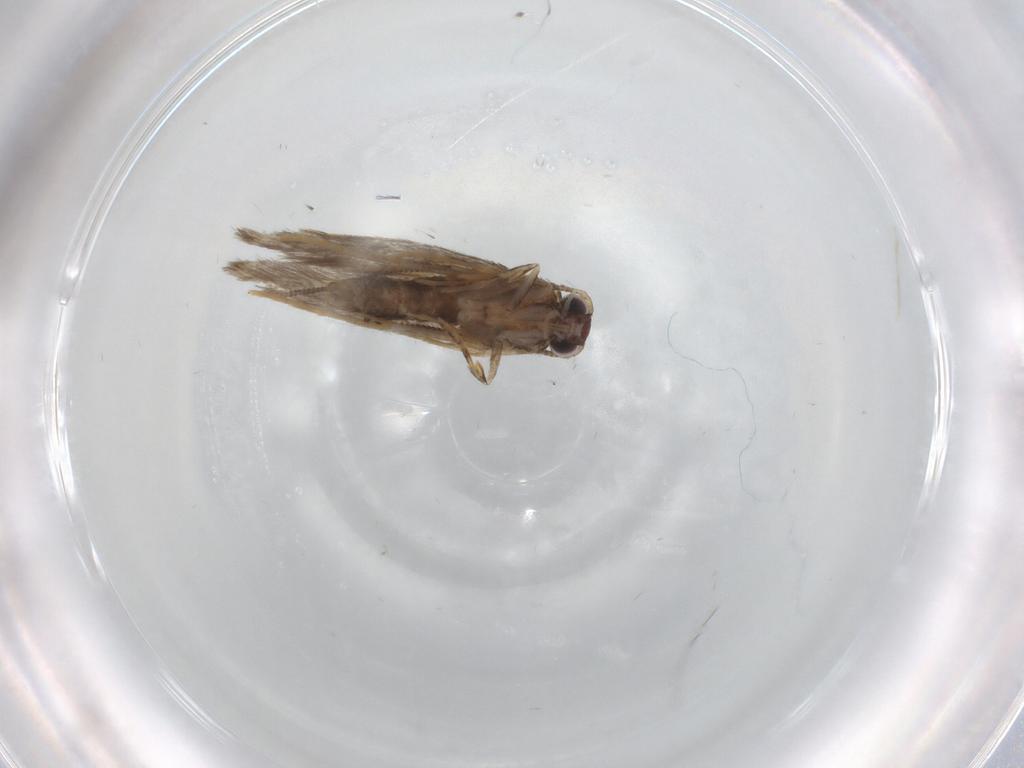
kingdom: Animalia
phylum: Arthropoda
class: Insecta
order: Lepidoptera
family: Tineidae
